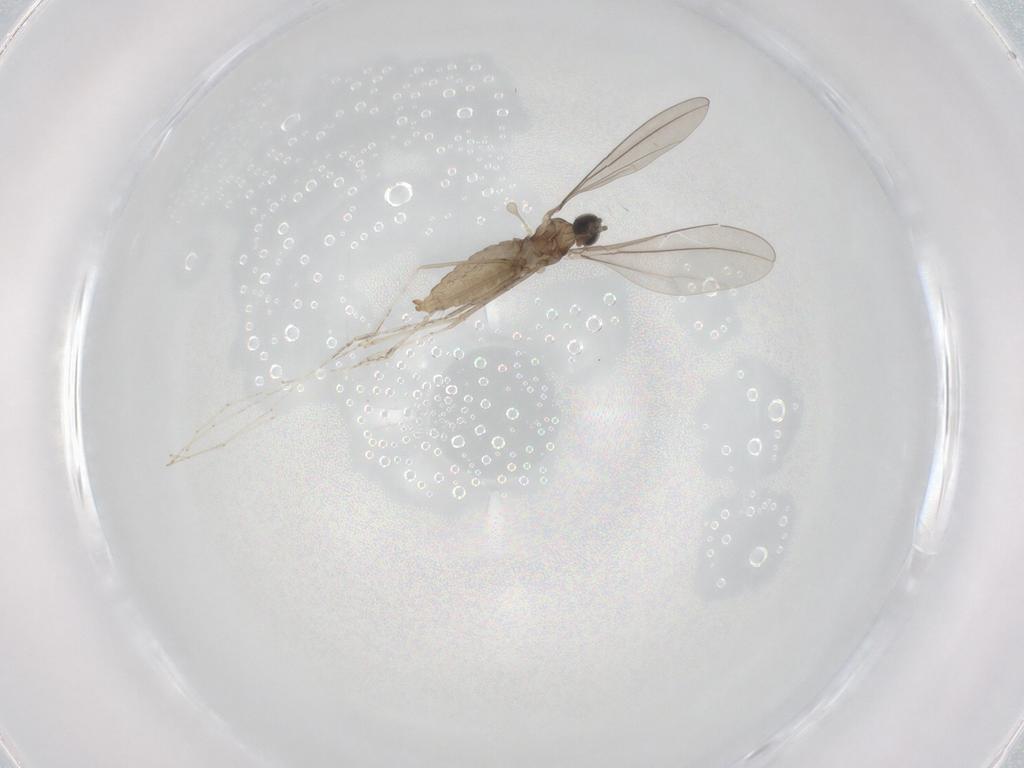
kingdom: Animalia
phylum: Arthropoda
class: Insecta
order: Diptera
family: Cecidomyiidae
